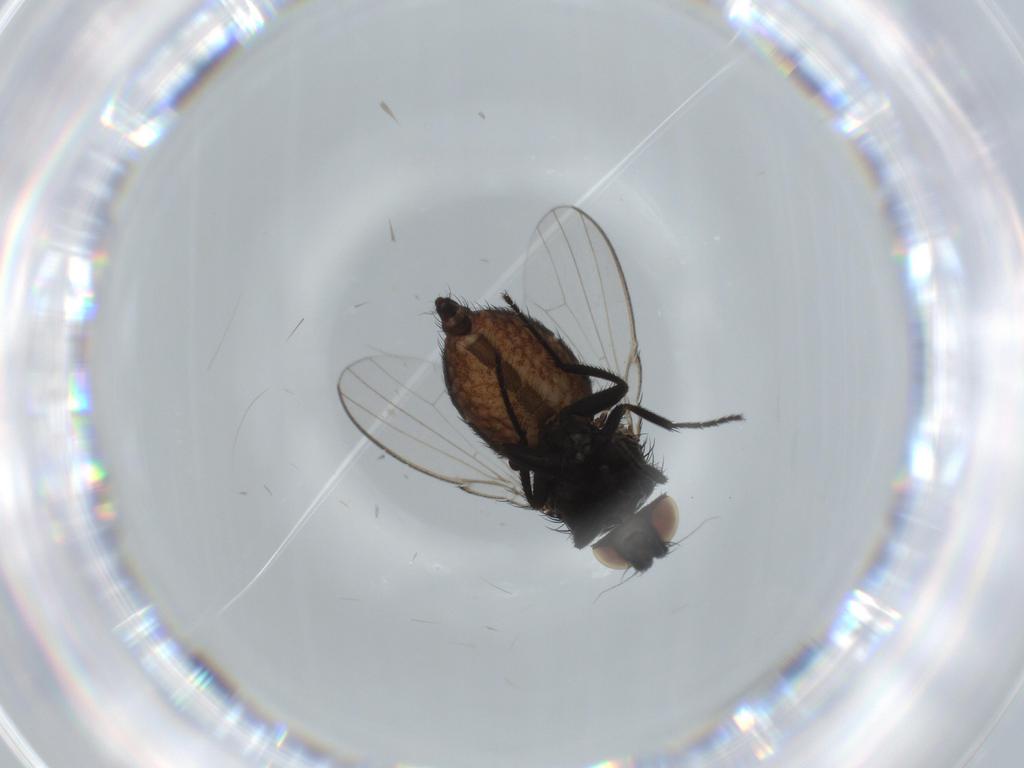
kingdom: Animalia
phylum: Arthropoda
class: Insecta
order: Diptera
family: Milichiidae
